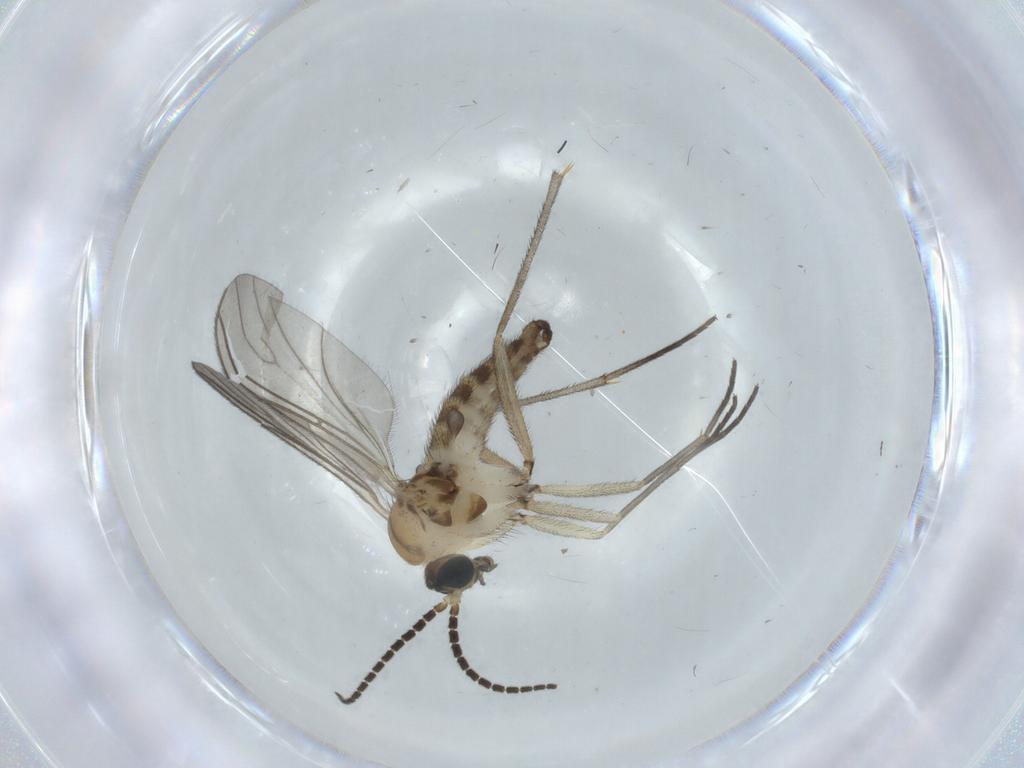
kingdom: Animalia
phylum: Arthropoda
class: Insecta
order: Diptera
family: Sciaridae
